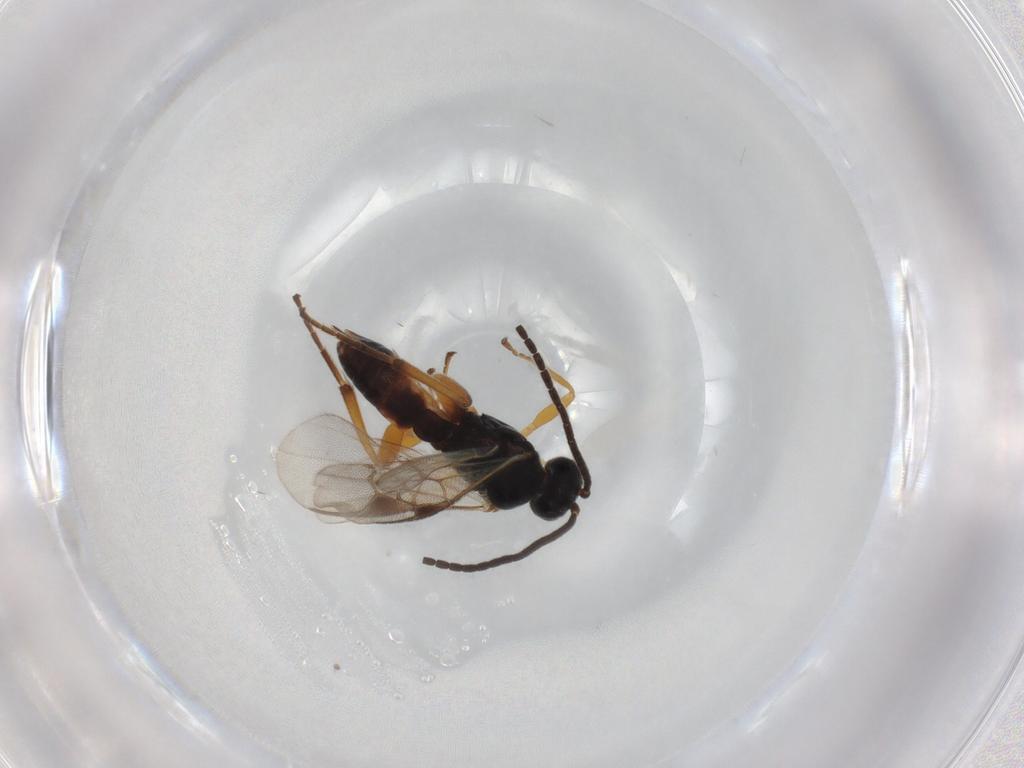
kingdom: Animalia
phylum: Arthropoda
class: Insecta
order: Hymenoptera
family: Braconidae
